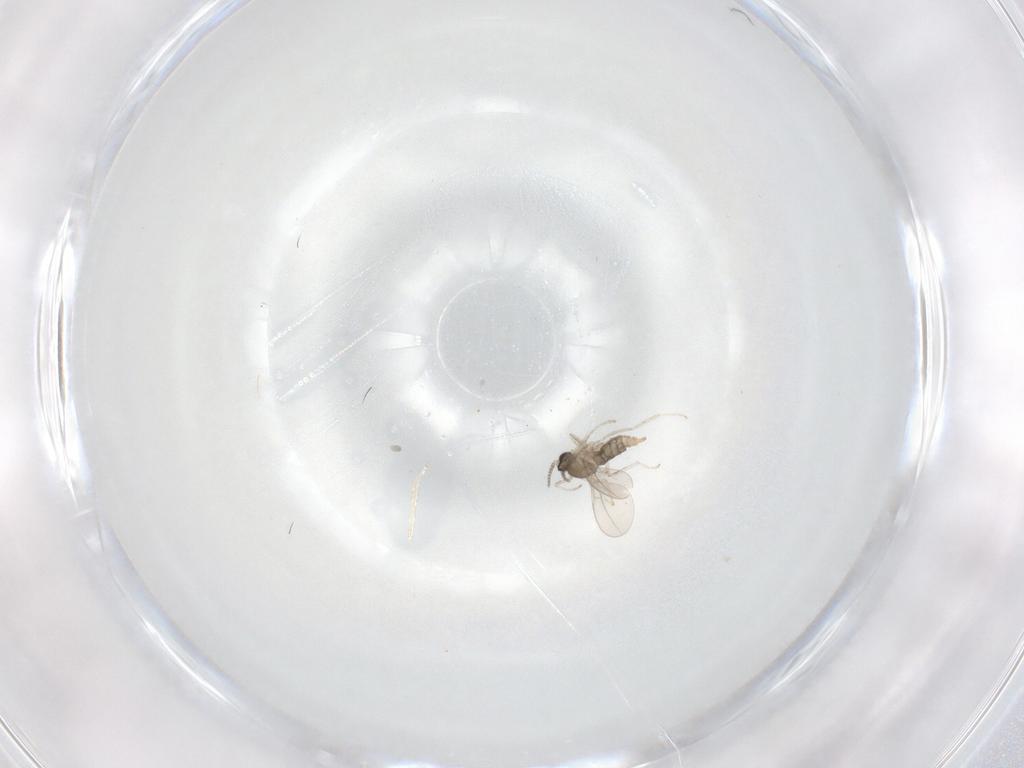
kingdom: Animalia
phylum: Arthropoda
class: Insecta
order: Diptera
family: Cecidomyiidae
